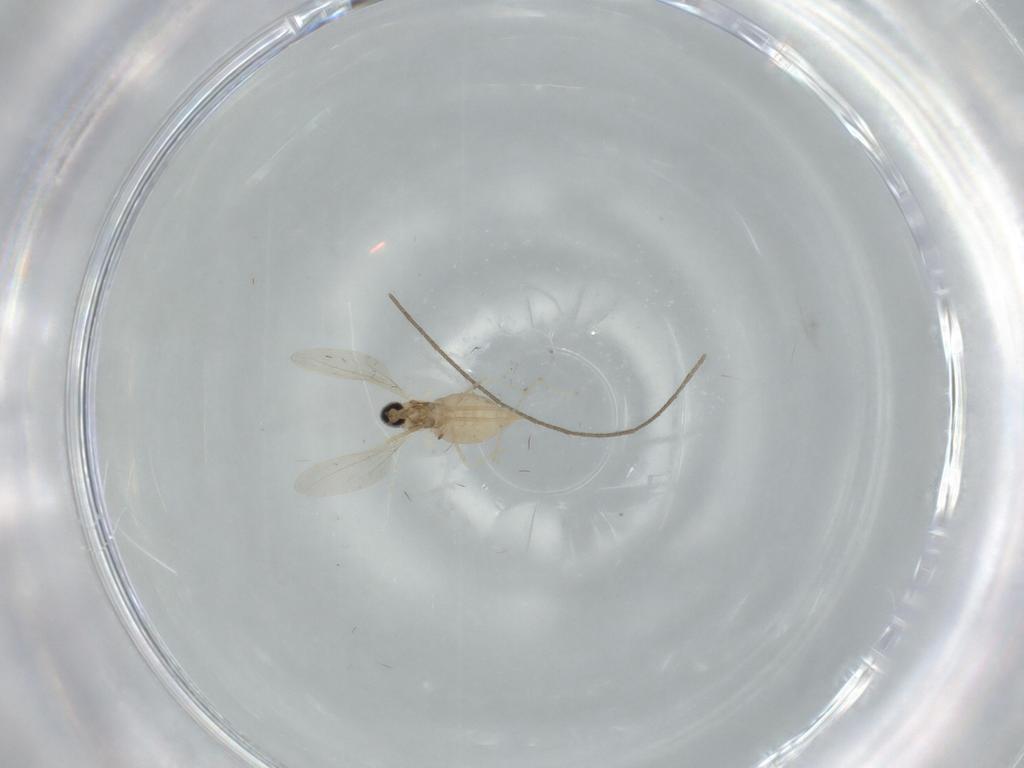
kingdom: Animalia
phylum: Arthropoda
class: Insecta
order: Diptera
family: Cecidomyiidae
